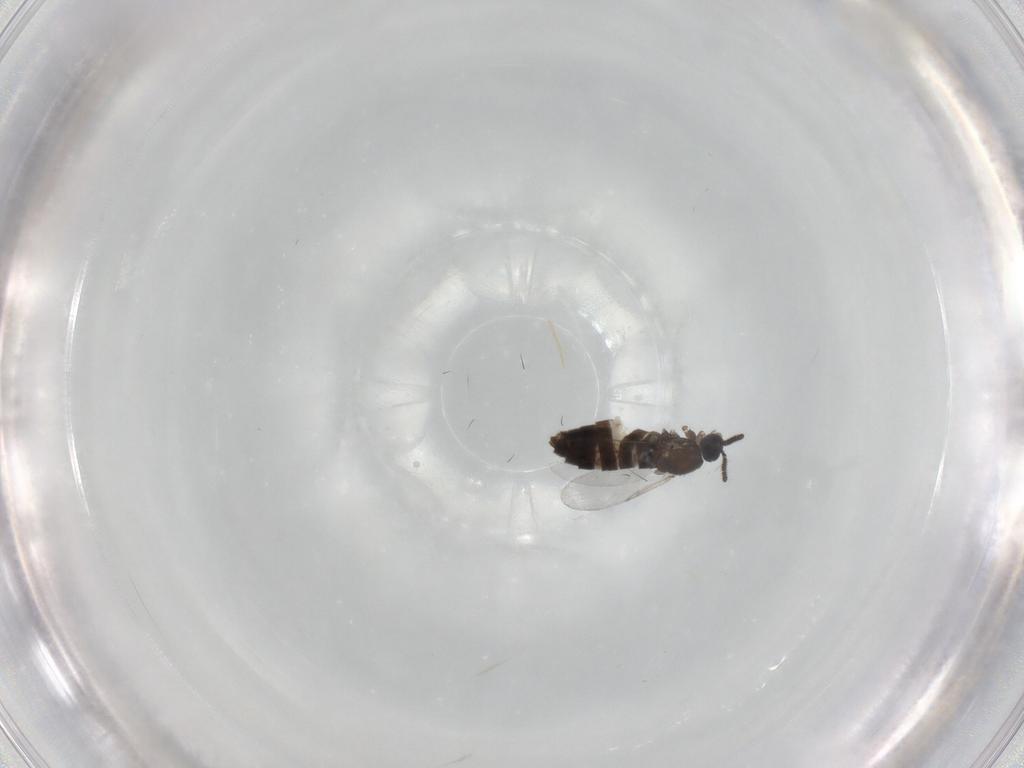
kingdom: Animalia
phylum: Arthropoda
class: Insecta
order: Diptera
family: Calliphoridae
